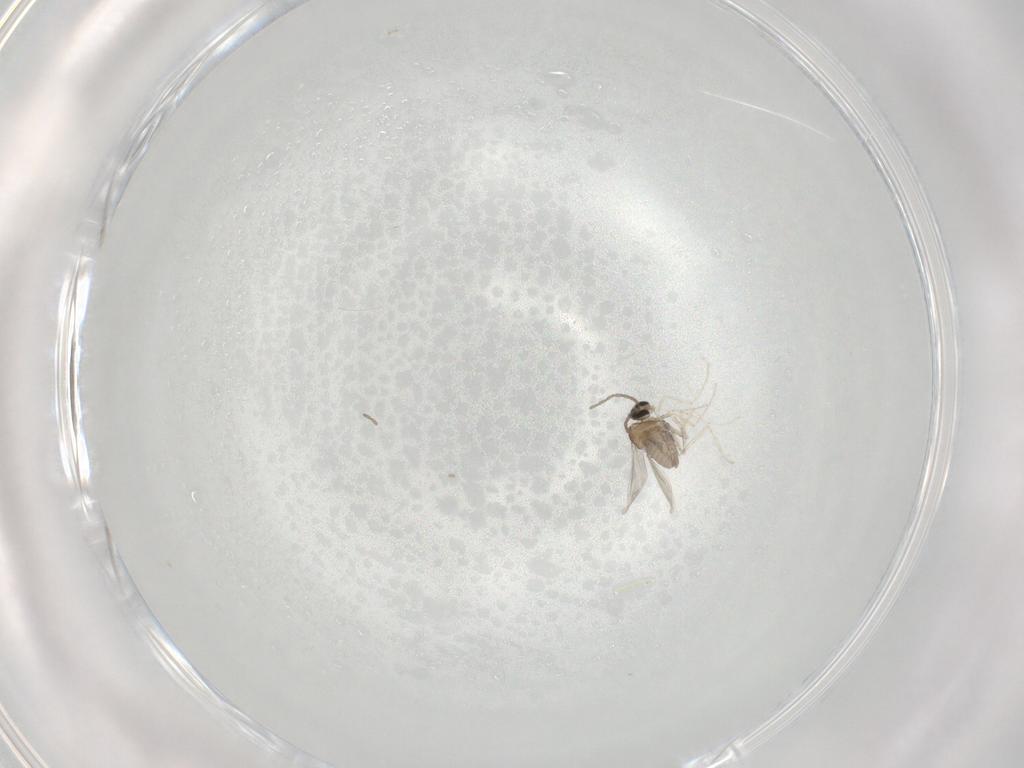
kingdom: Animalia
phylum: Arthropoda
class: Insecta
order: Diptera
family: Cecidomyiidae
